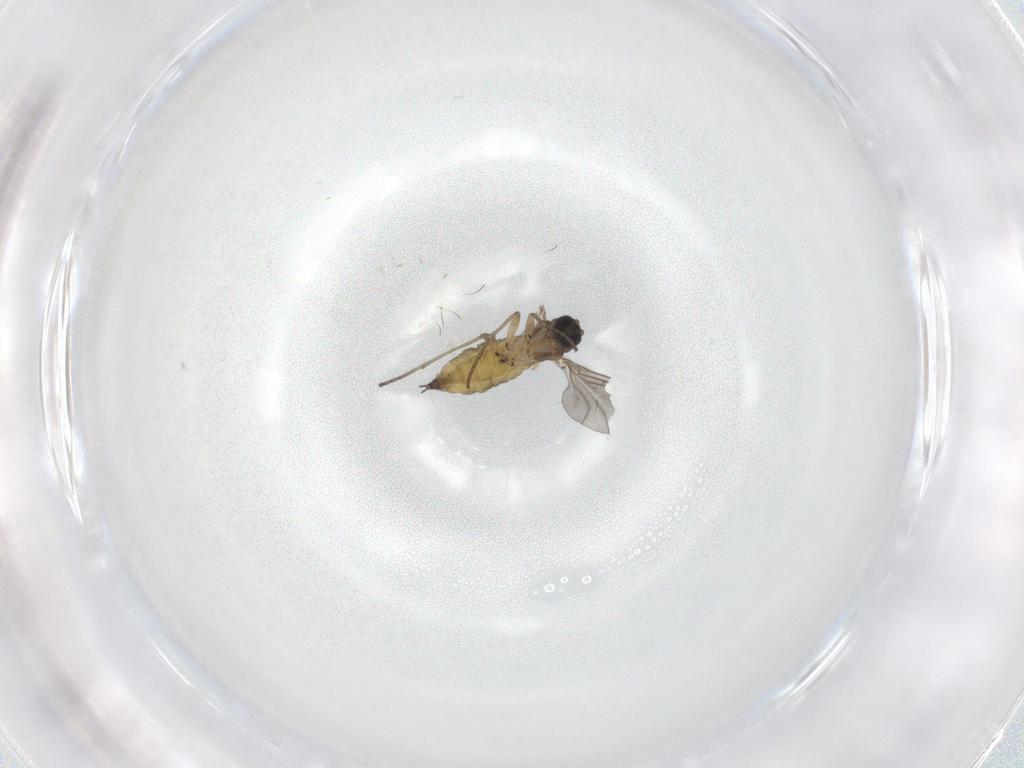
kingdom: Animalia
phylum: Arthropoda
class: Insecta
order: Diptera
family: Sciaridae
